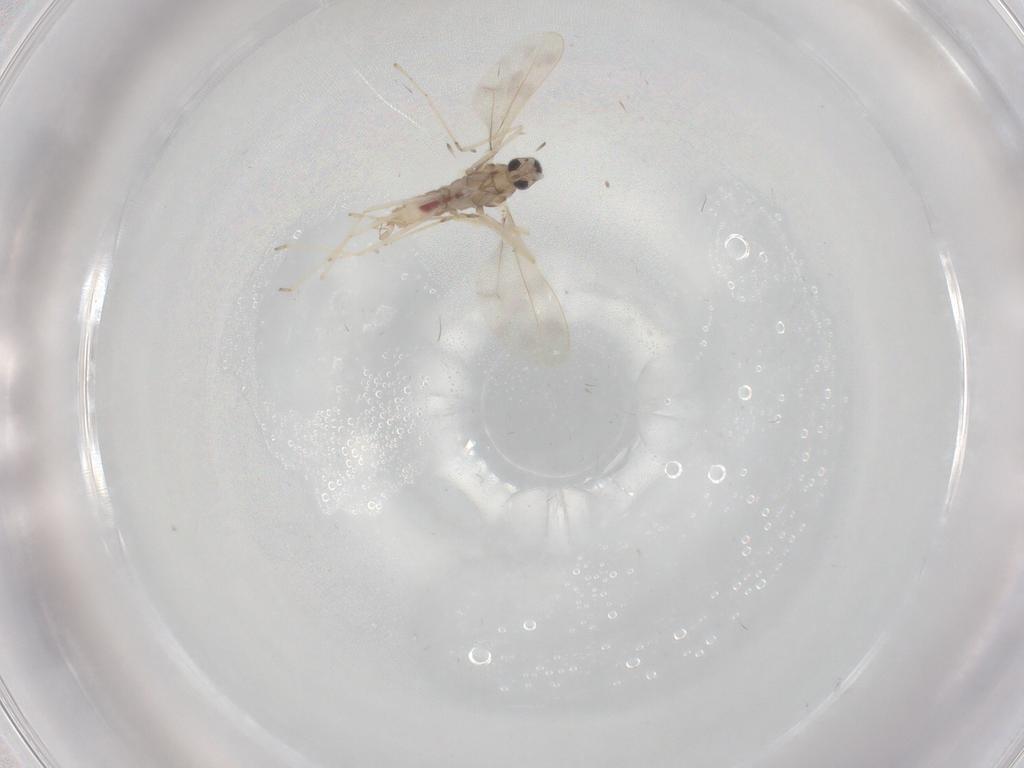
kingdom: Animalia
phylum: Arthropoda
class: Insecta
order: Diptera
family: Cecidomyiidae
